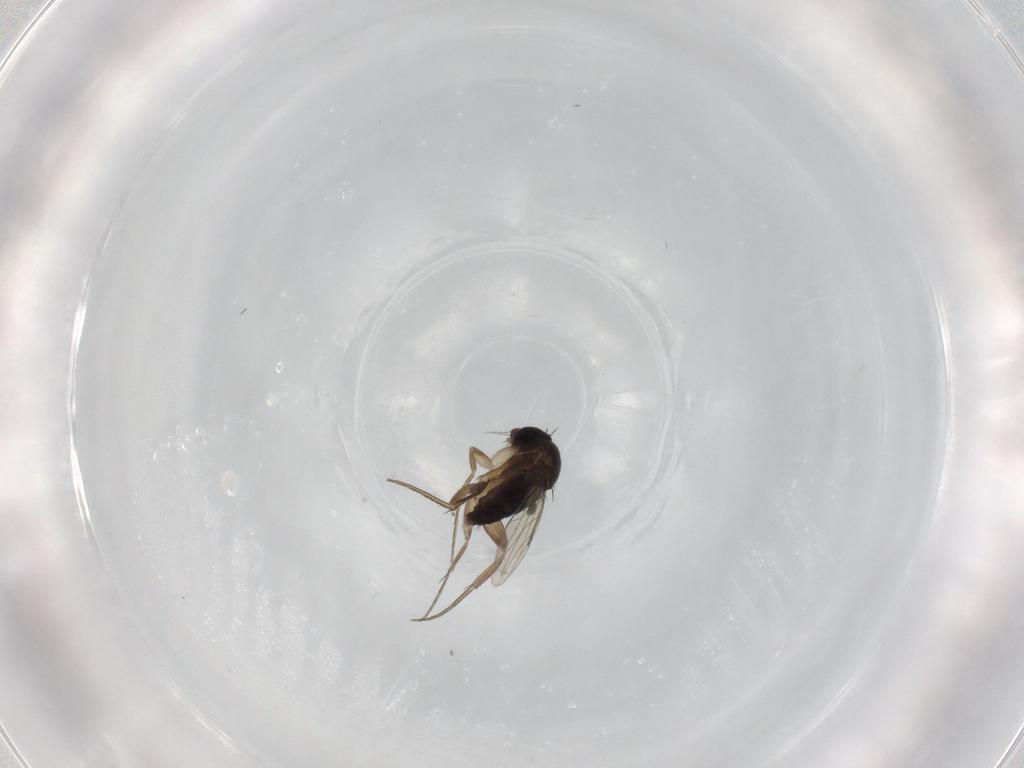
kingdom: Animalia
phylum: Arthropoda
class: Insecta
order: Diptera
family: Phoridae
